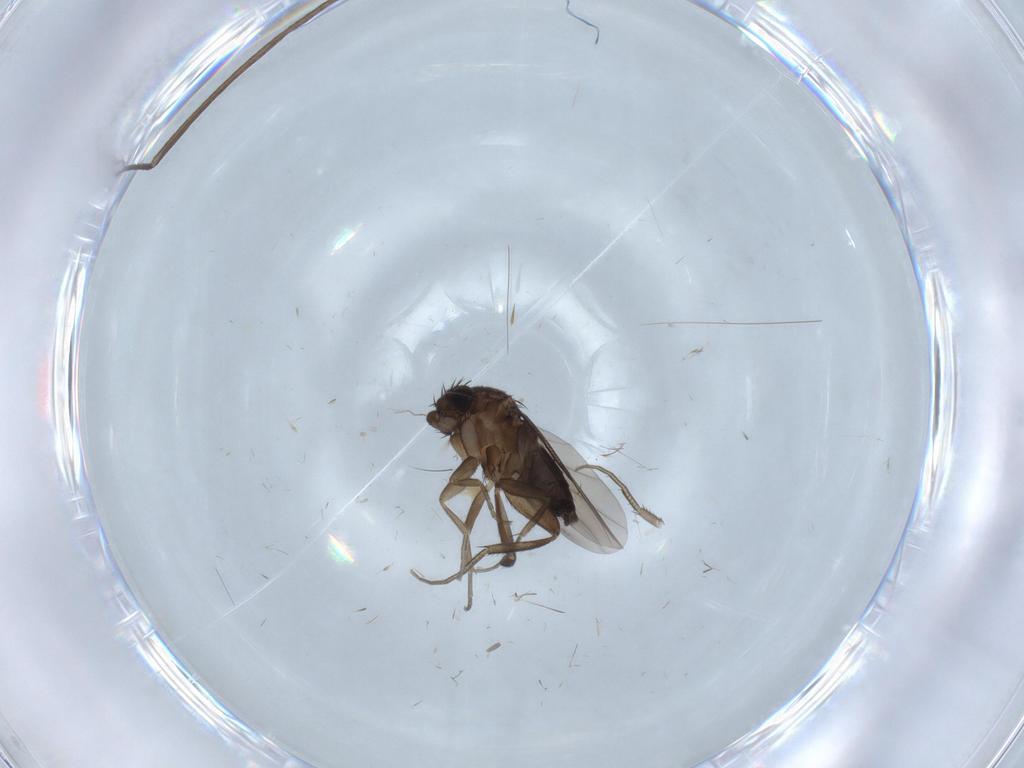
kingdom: Animalia
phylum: Arthropoda
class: Insecta
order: Diptera
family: Phoridae
